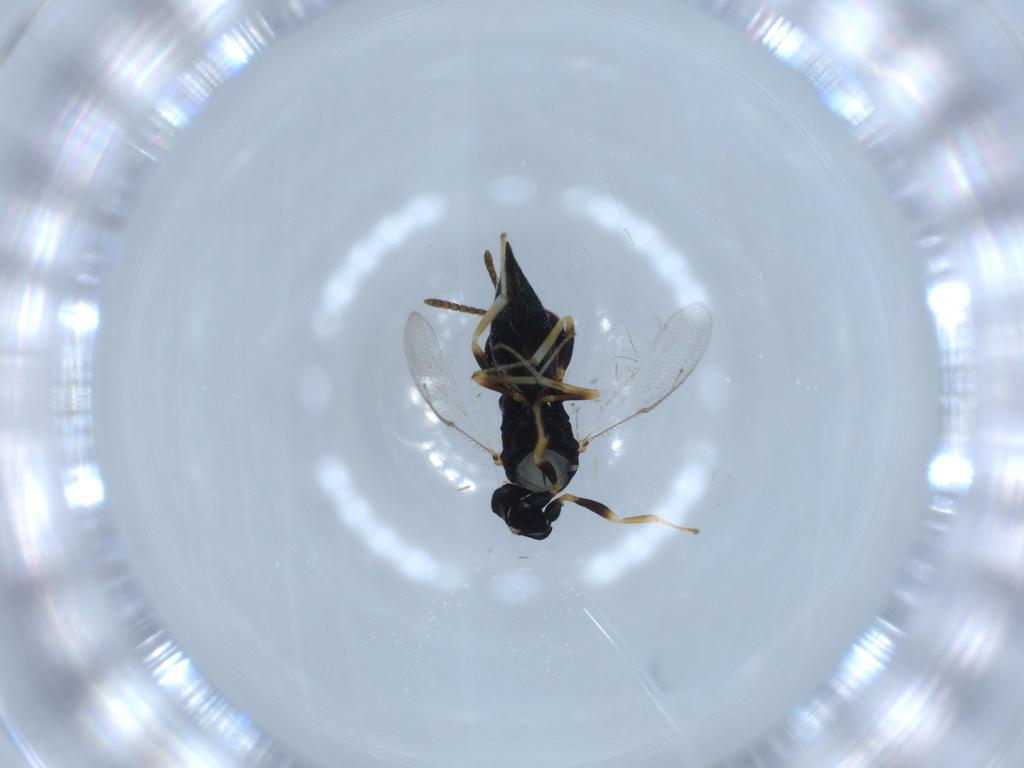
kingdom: Animalia
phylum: Arthropoda
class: Insecta
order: Hymenoptera
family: Pteromalidae
